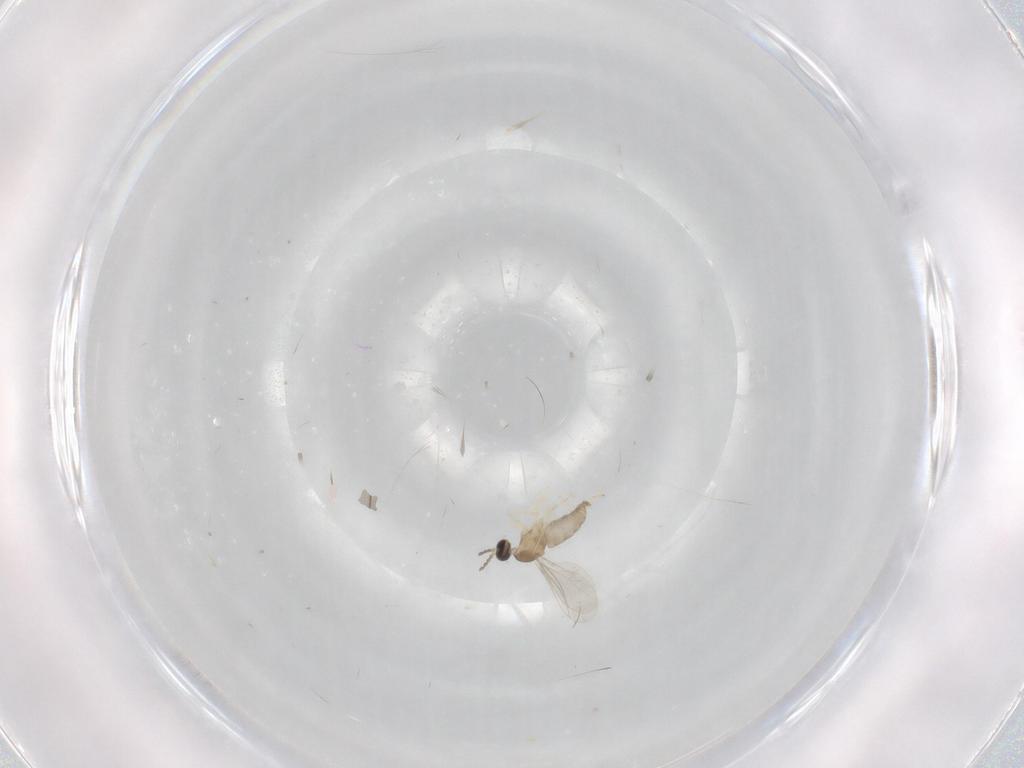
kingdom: Animalia
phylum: Arthropoda
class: Insecta
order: Diptera
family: Cecidomyiidae
